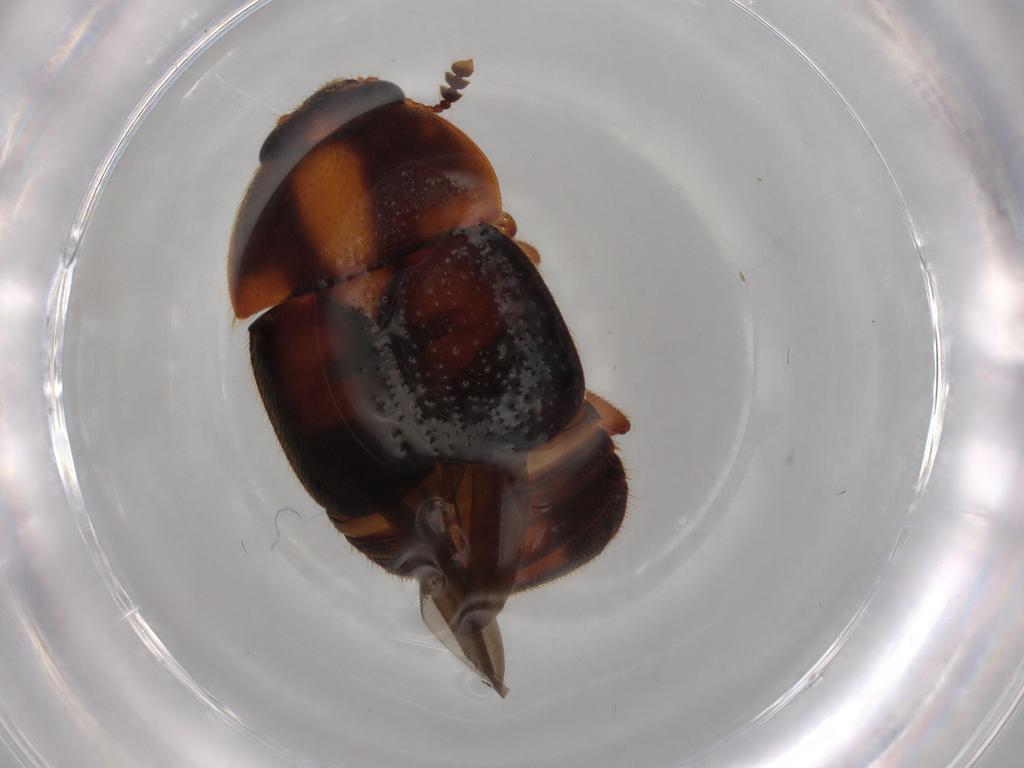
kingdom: Animalia
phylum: Arthropoda
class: Insecta
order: Coleoptera
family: Nitidulidae
